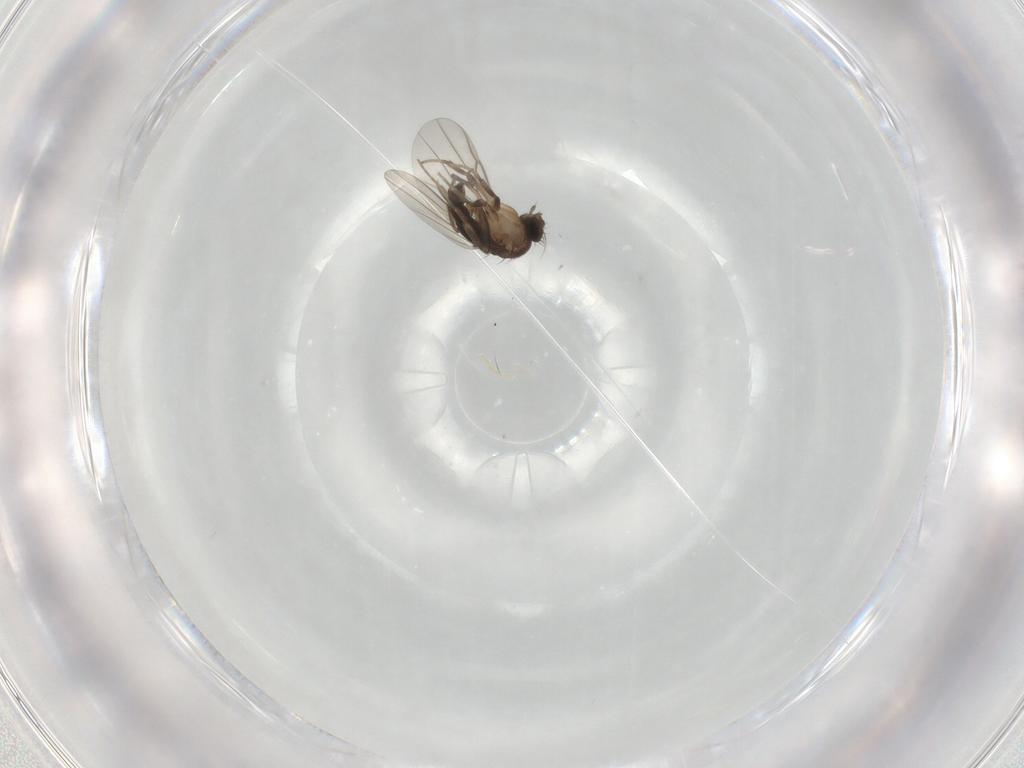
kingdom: Animalia
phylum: Arthropoda
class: Insecta
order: Diptera
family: Phoridae
